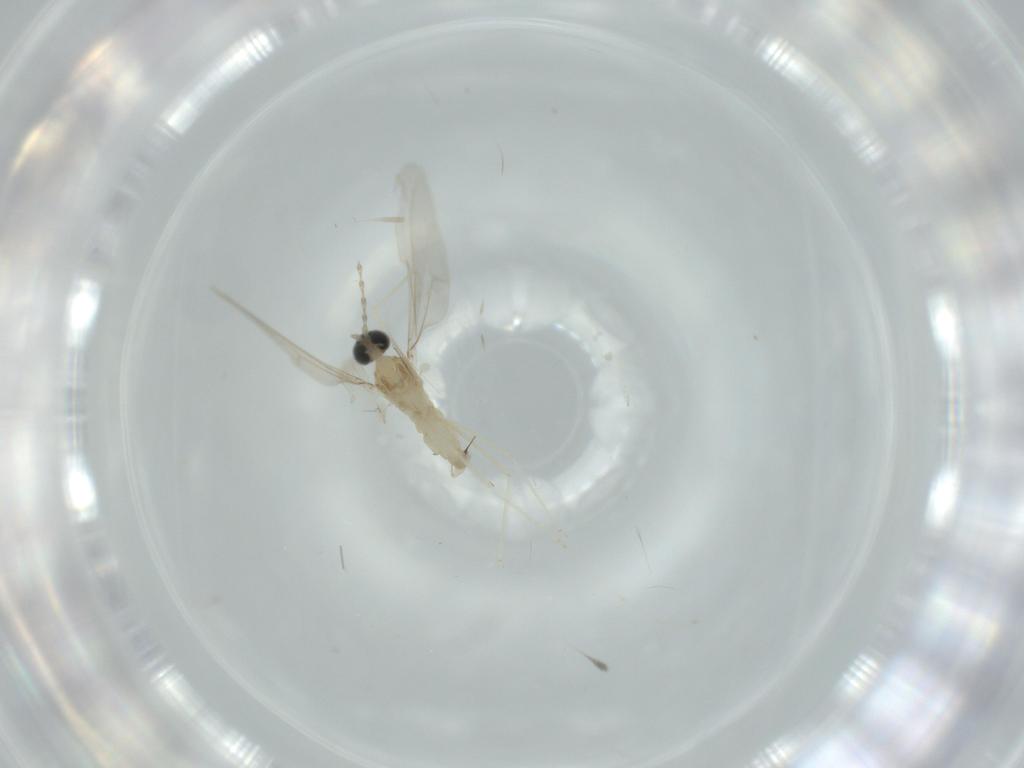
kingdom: Animalia
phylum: Arthropoda
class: Insecta
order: Diptera
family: Cecidomyiidae
